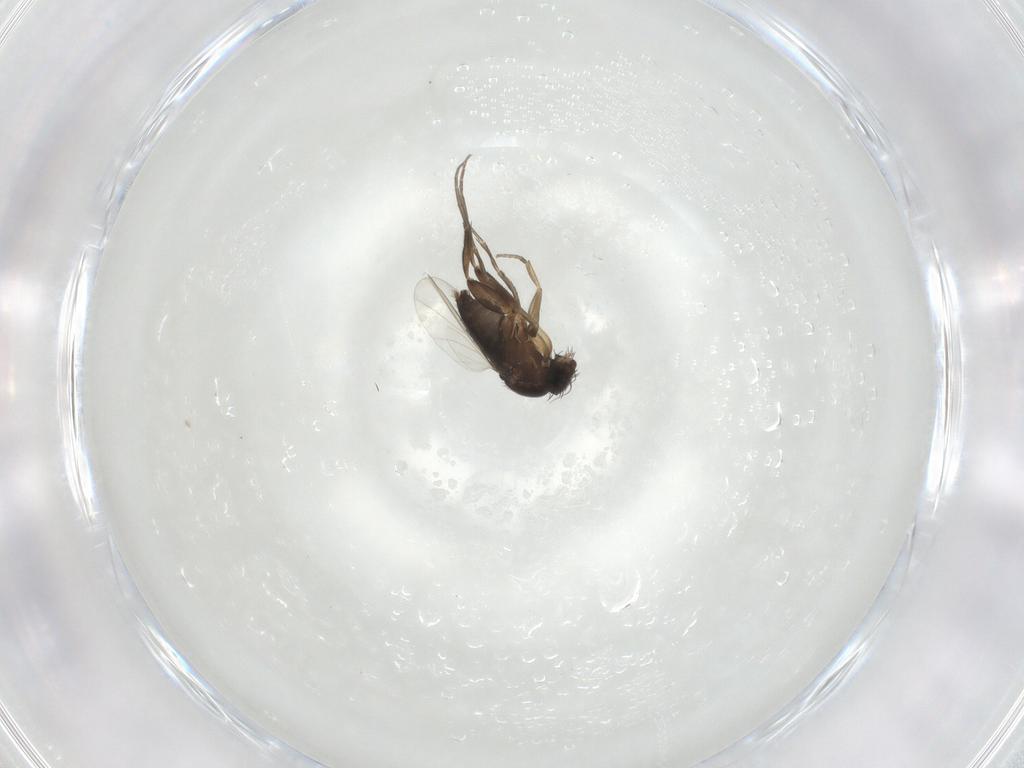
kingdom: Animalia
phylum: Arthropoda
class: Insecta
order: Diptera
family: Phoridae
